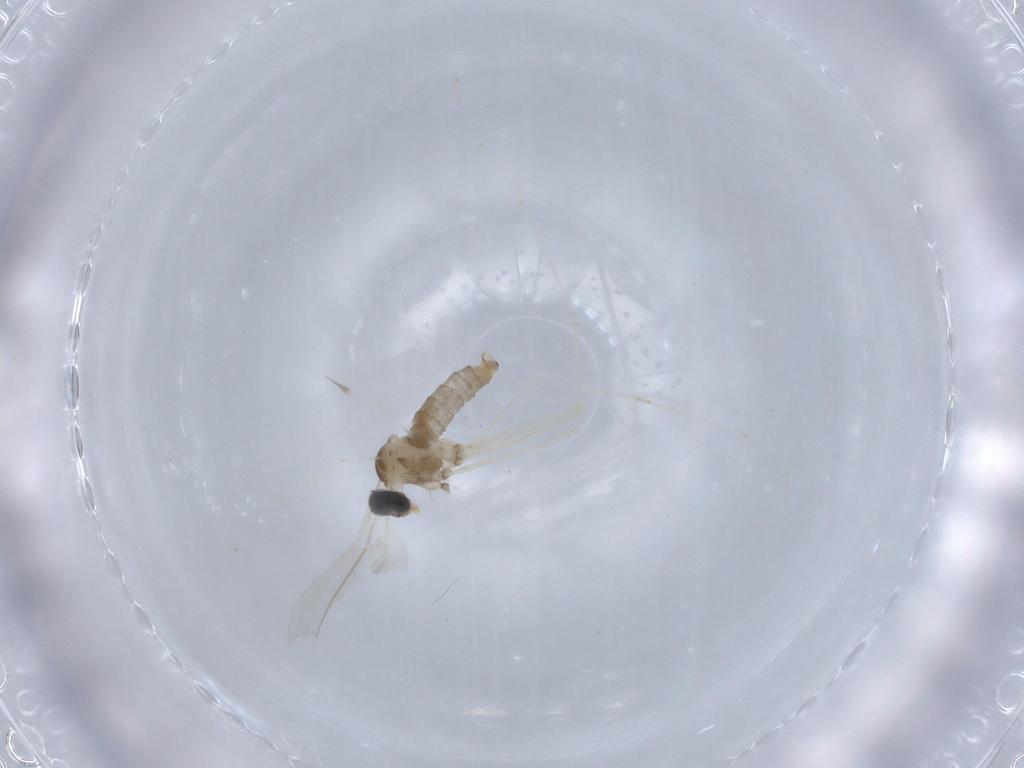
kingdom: Animalia
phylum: Arthropoda
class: Insecta
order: Diptera
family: Cecidomyiidae
